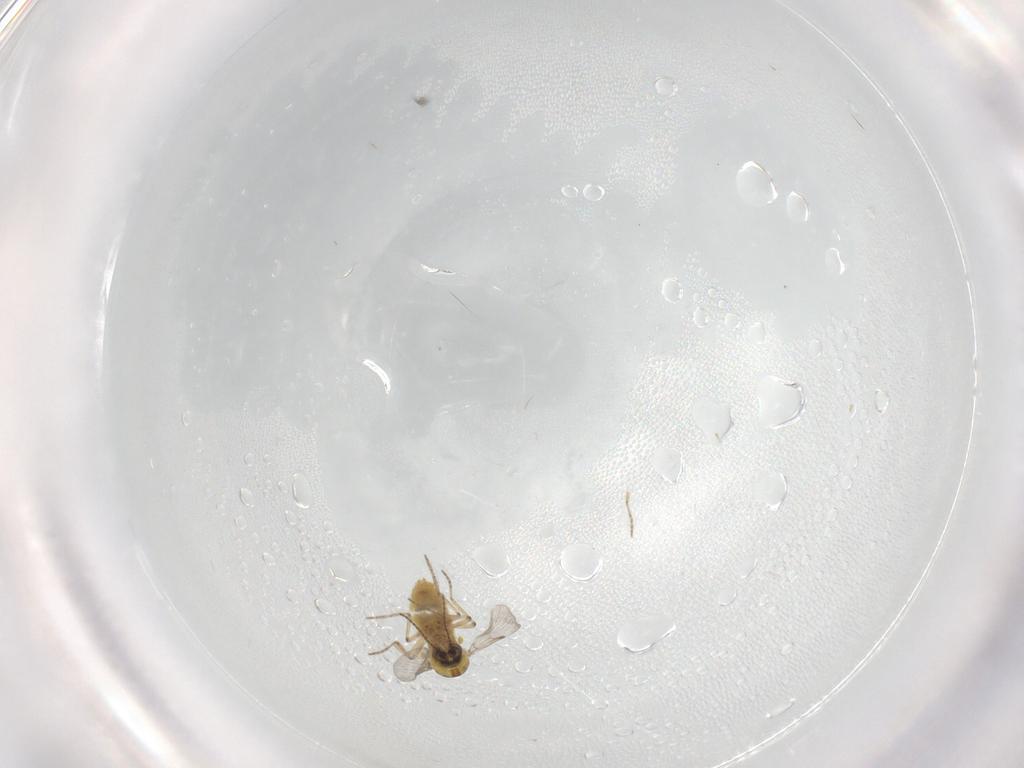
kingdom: Animalia
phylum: Arthropoda
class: Insecta
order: Diptera
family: Ceratopogonidae
